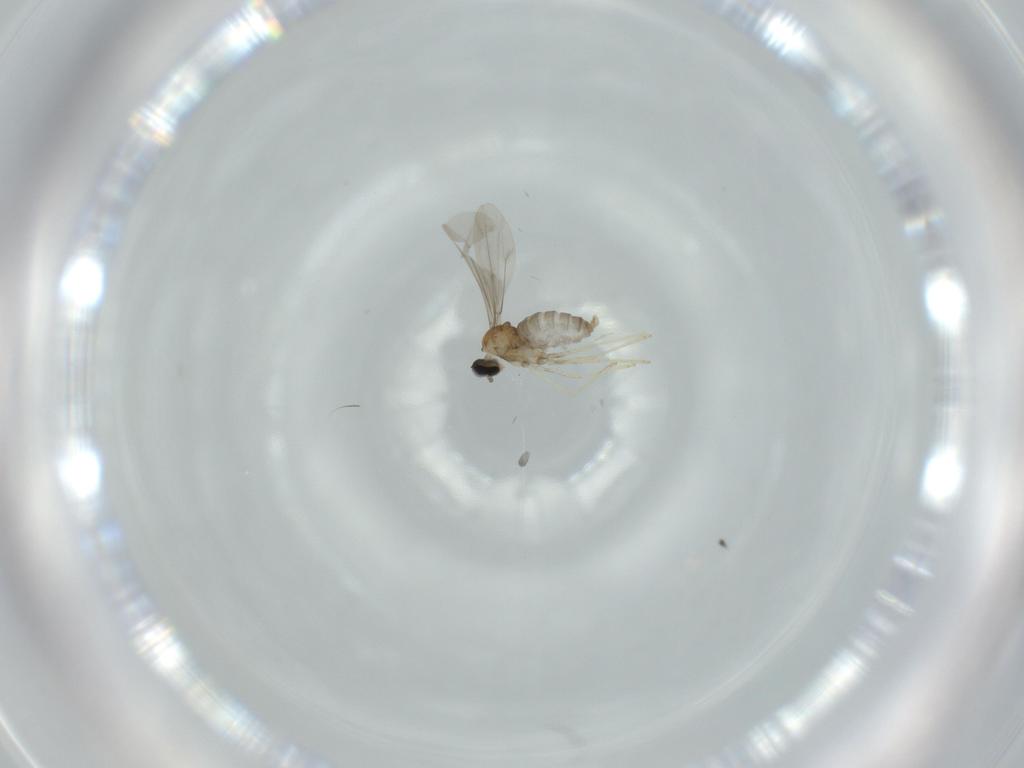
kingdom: Animalia
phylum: Arthropoda
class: Insecta
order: Diptera
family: Cecidomyiidae
